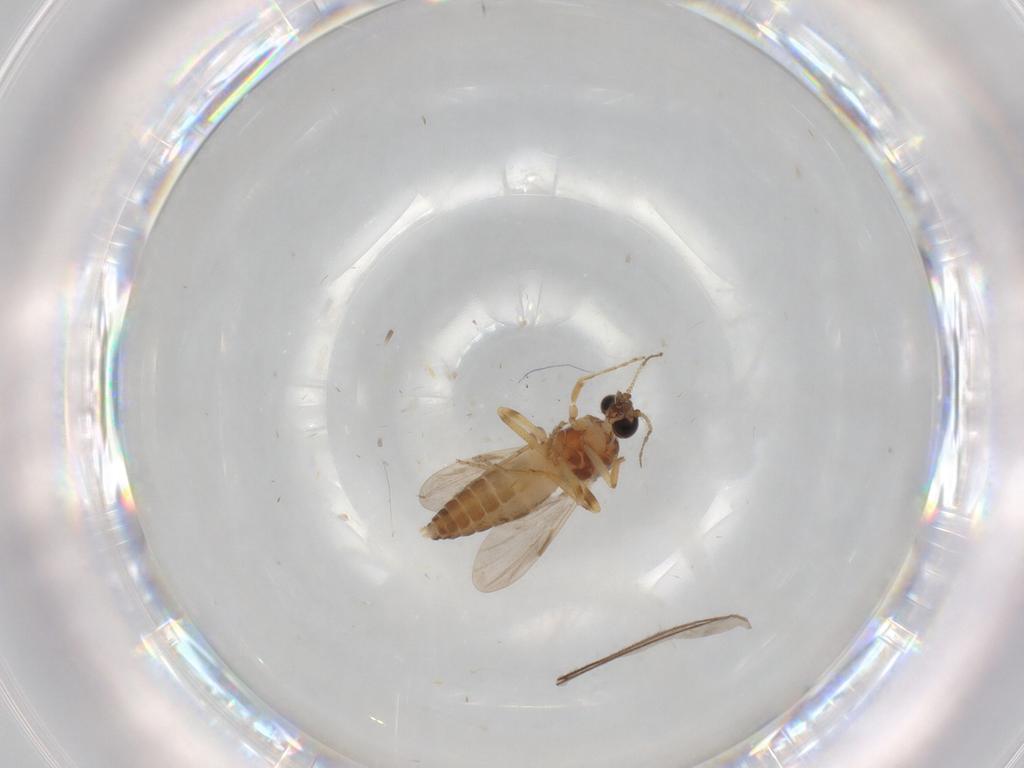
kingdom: Animalia
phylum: Arthropoda
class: Insecta
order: Diptera
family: Sciaridae
